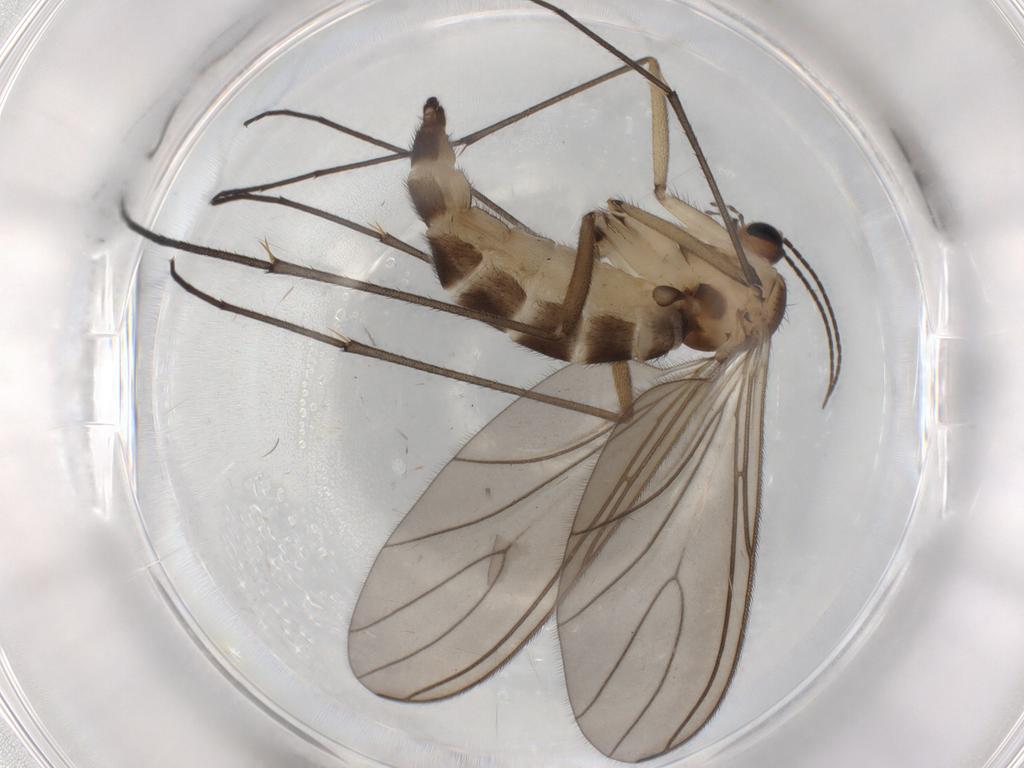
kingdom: Animalia
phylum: Arthropoda
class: Insecta
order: Diptera
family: Sciaridae
